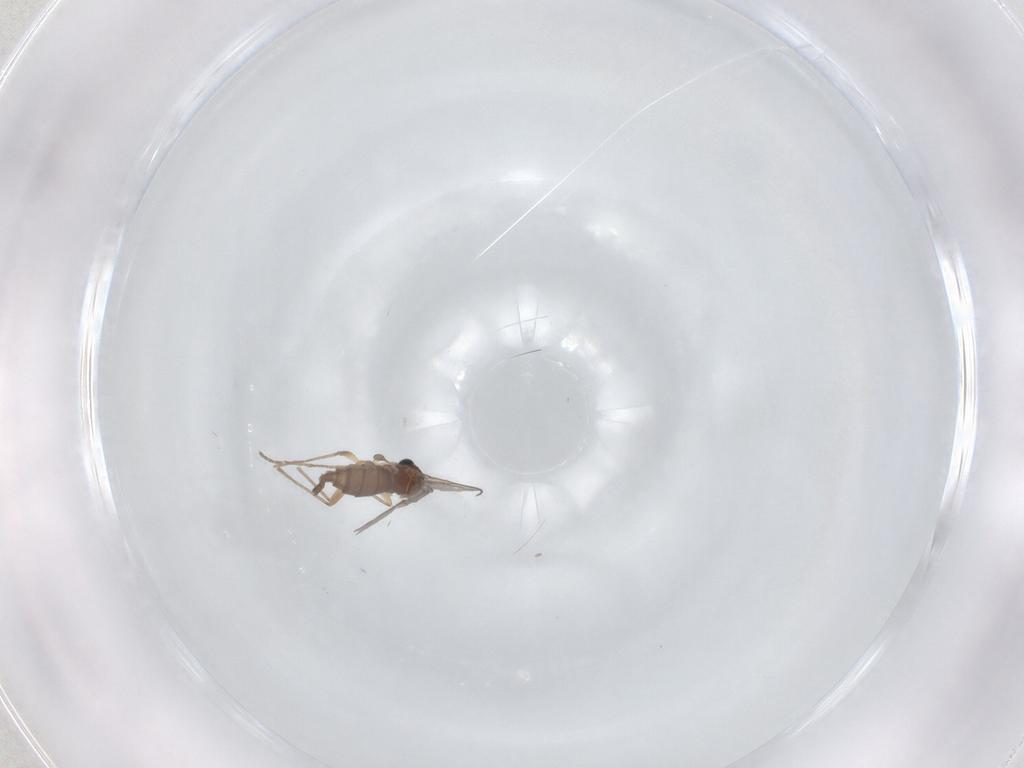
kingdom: Animalia
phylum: Arthropoda
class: Insecta
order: Diptera
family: Sciaridae
